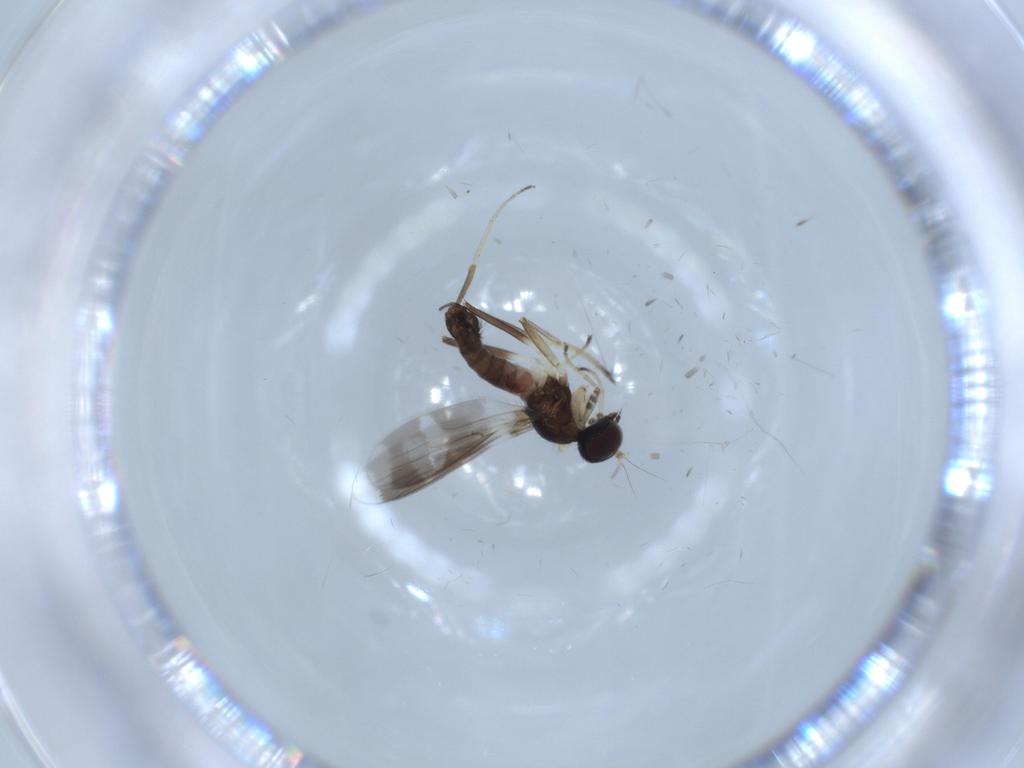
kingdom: Animalia
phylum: Arthropoda
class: Insecta
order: Diptera
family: Hybotidae
